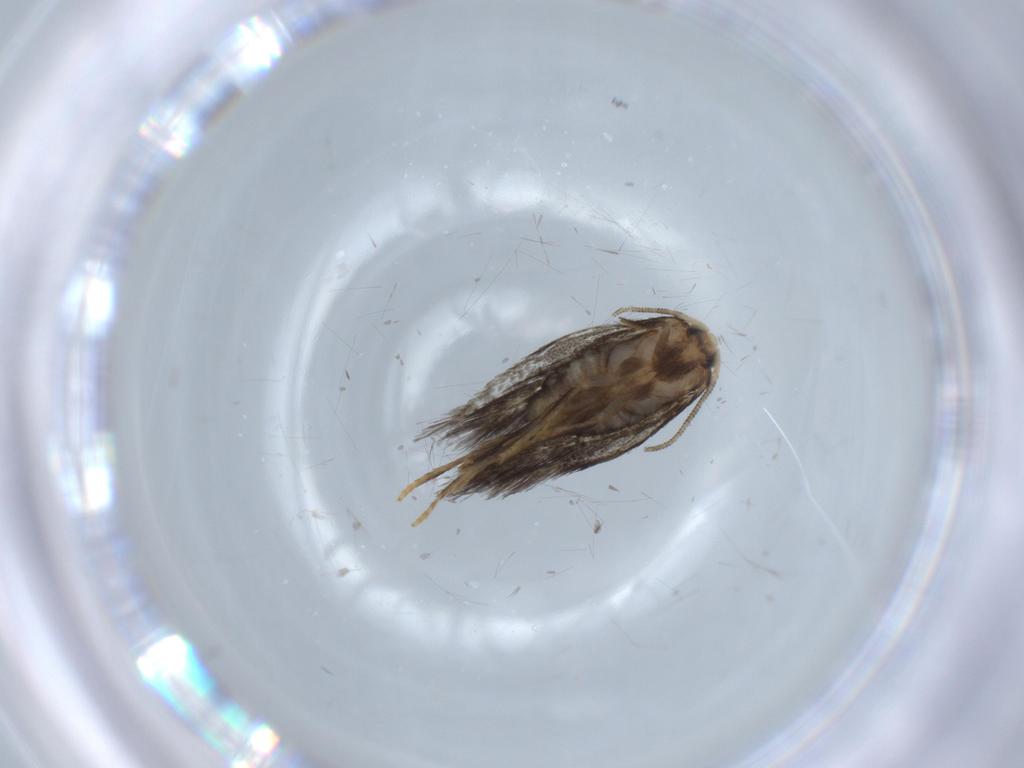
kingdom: Animalia
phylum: Arthropoda
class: Insecta
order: Lepidoptera
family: Nepticulidae
